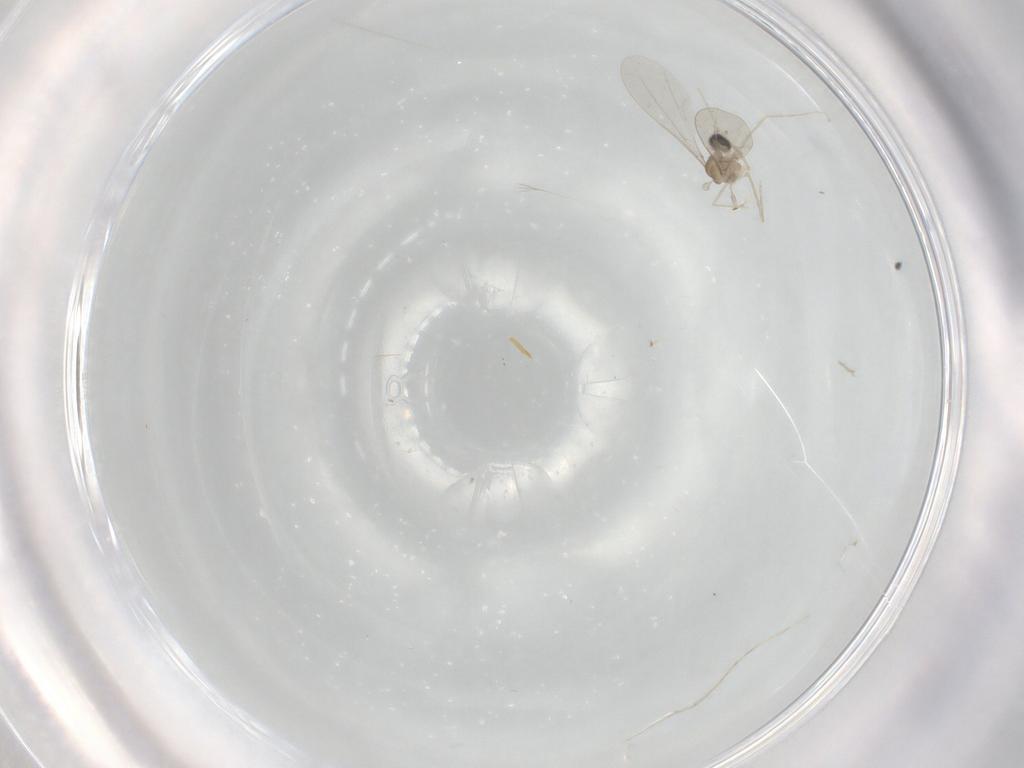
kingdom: Animalia
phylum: Arthropoda
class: Insecta
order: Diptera
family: Cecidomyiidae
